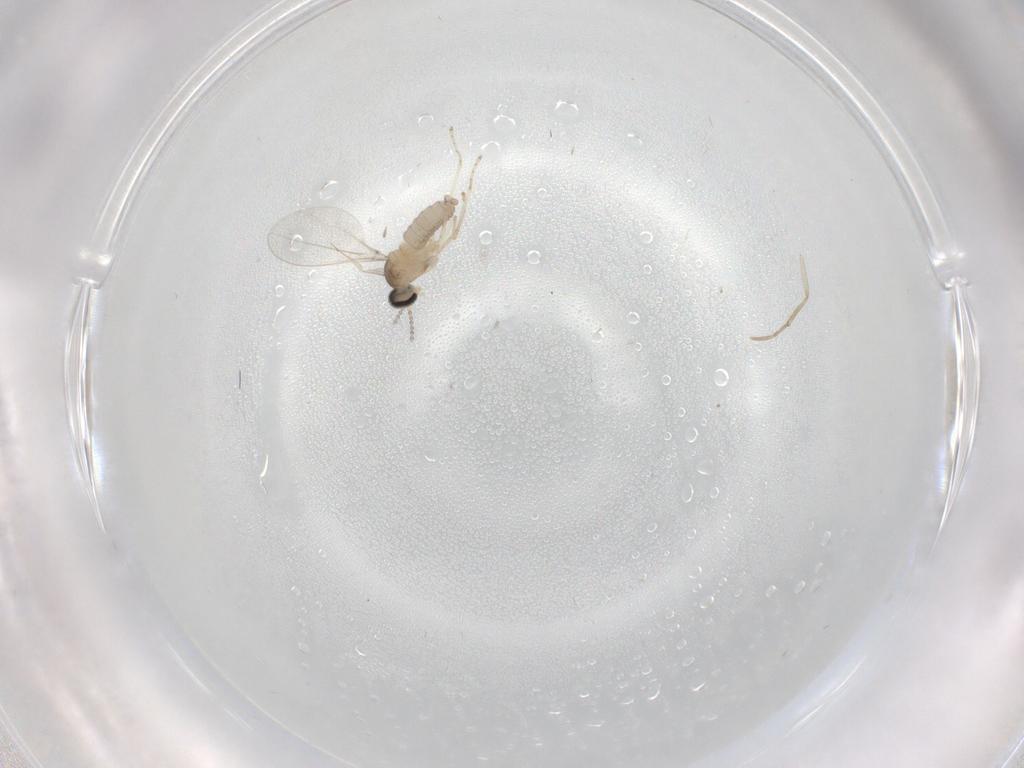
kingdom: Animalia
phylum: Arthropoda
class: Insecta
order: Diptera
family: Cecidomyiidae
